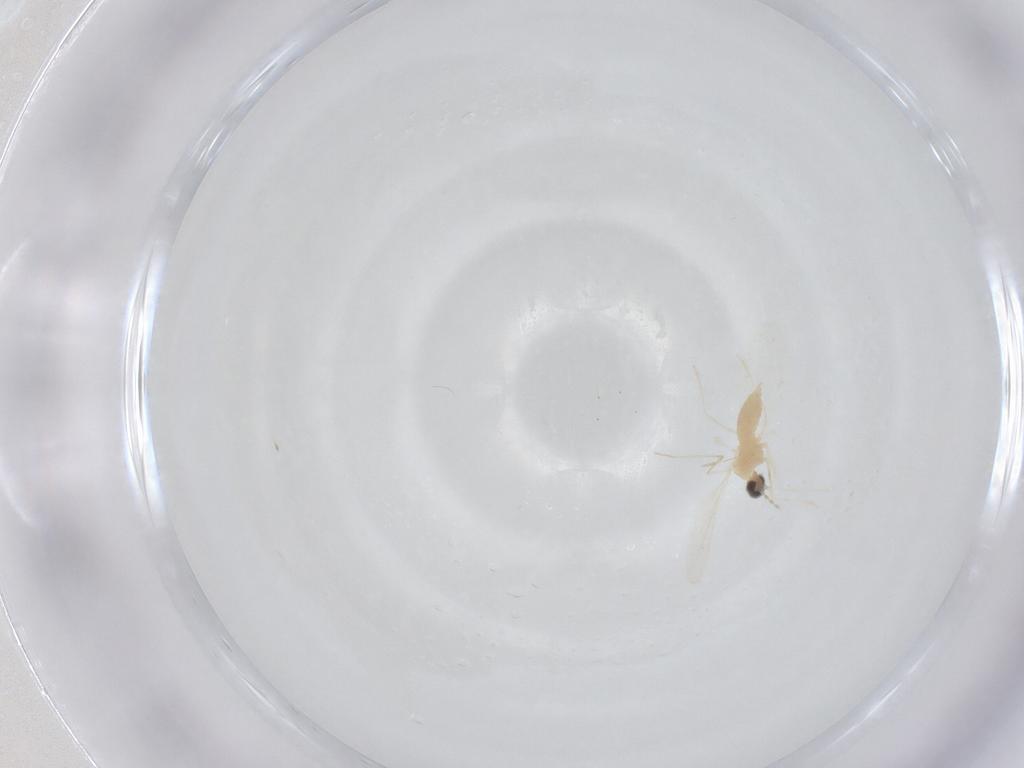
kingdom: Animalia
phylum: Arthropoda
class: Insecta
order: Diptera
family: Cecidomyiidae
